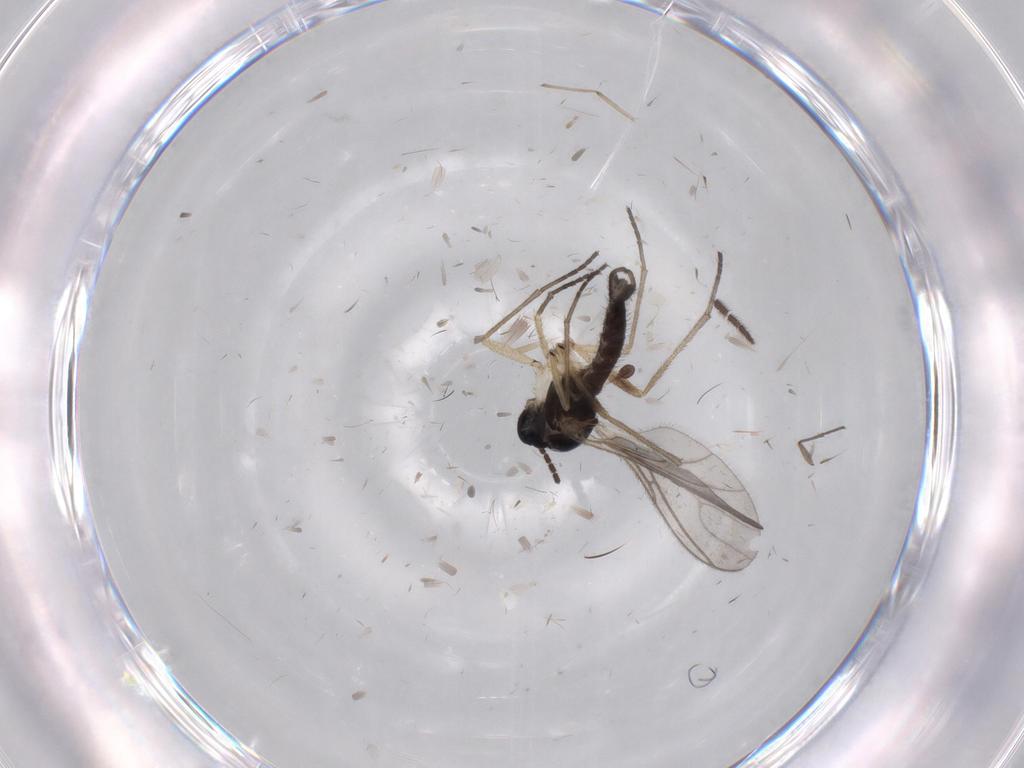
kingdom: Animalia
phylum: Arthropoda
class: Insecta
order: Diptera
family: Sciaridae
